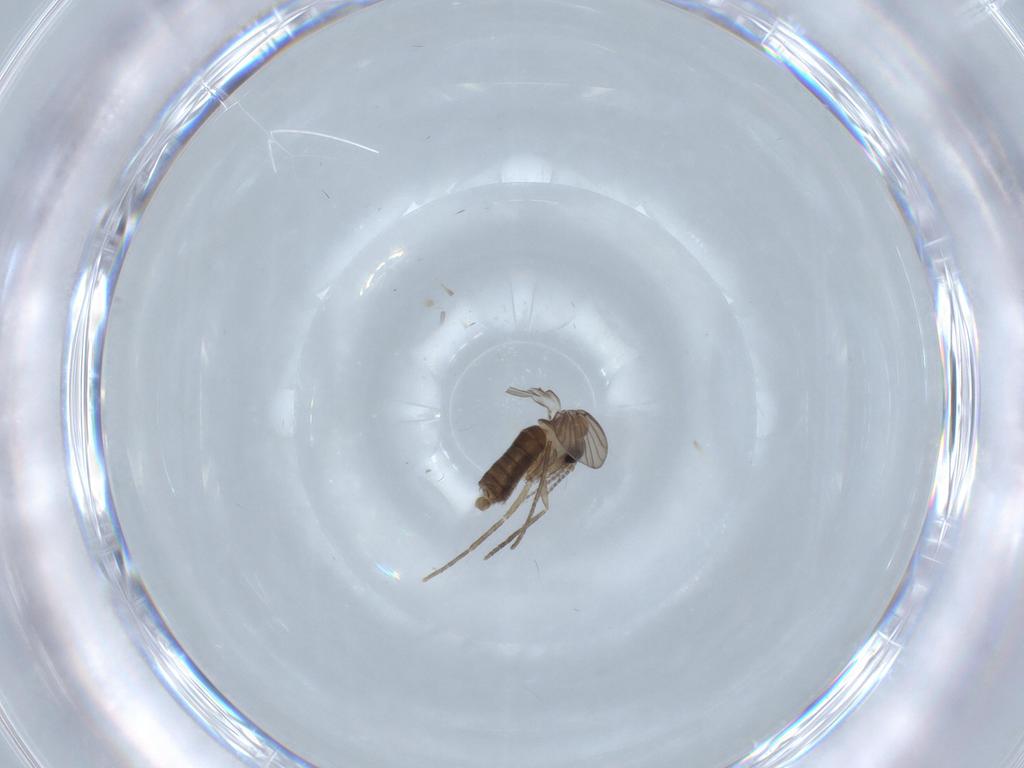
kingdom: Animalia
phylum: Arthropoda
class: Insecta
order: Diptera
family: Psychodidae
